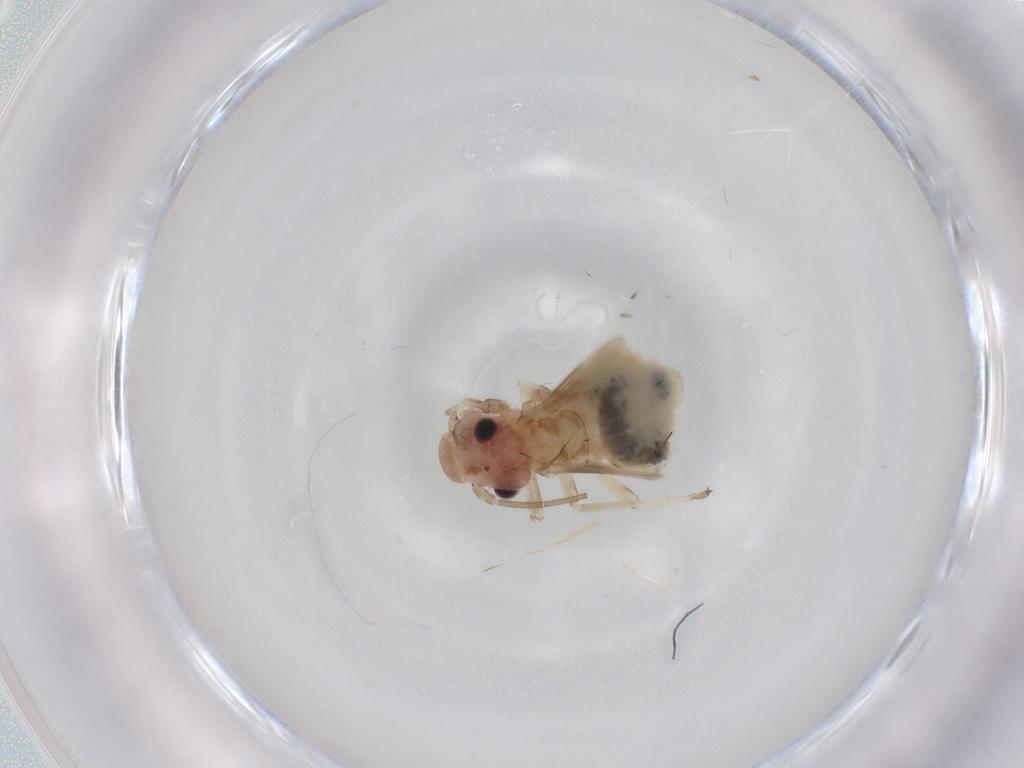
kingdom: Animalia
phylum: Arthropoda
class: Insecta
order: Psocodea
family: Stenopsocidae
